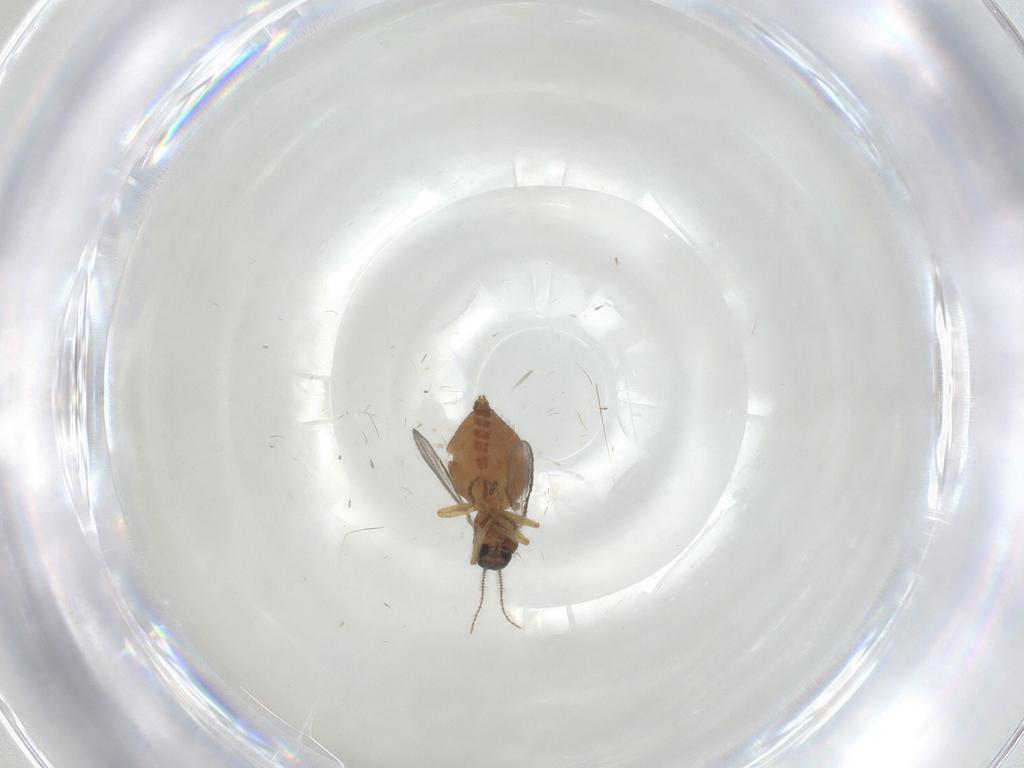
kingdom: Animalia
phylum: Arthropoda
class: Insecta
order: Diptera
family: Ceratopogonidae
